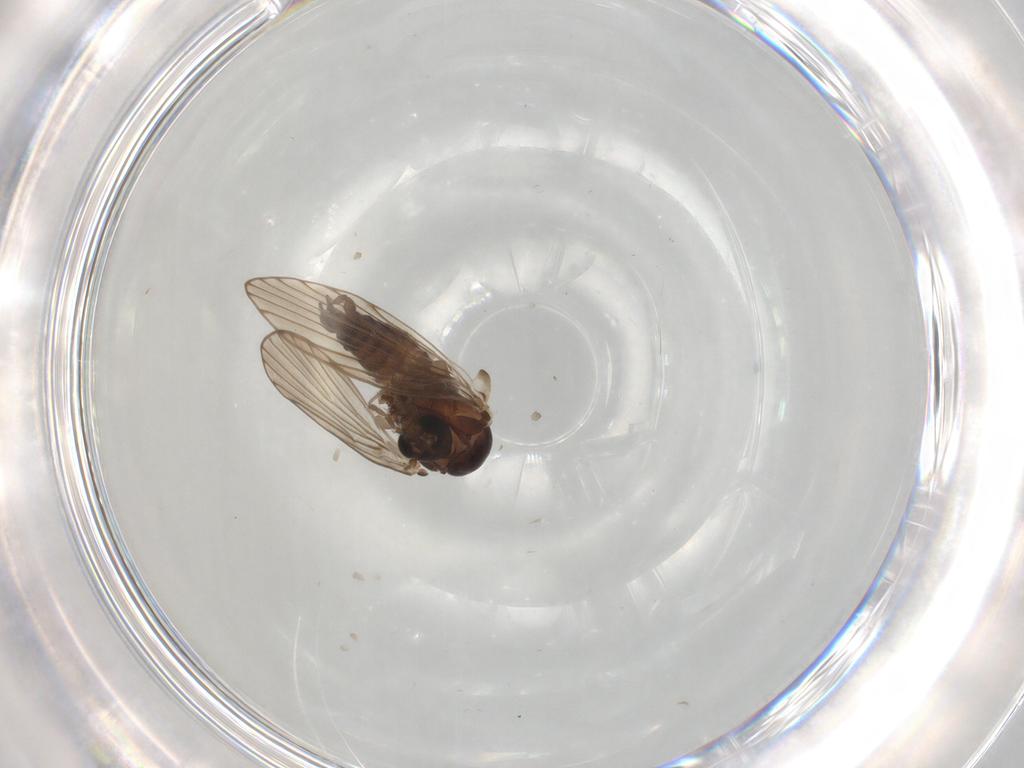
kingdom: Animalia
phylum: Arthropoda
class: Insecta
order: Diptera
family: Psychodidae
